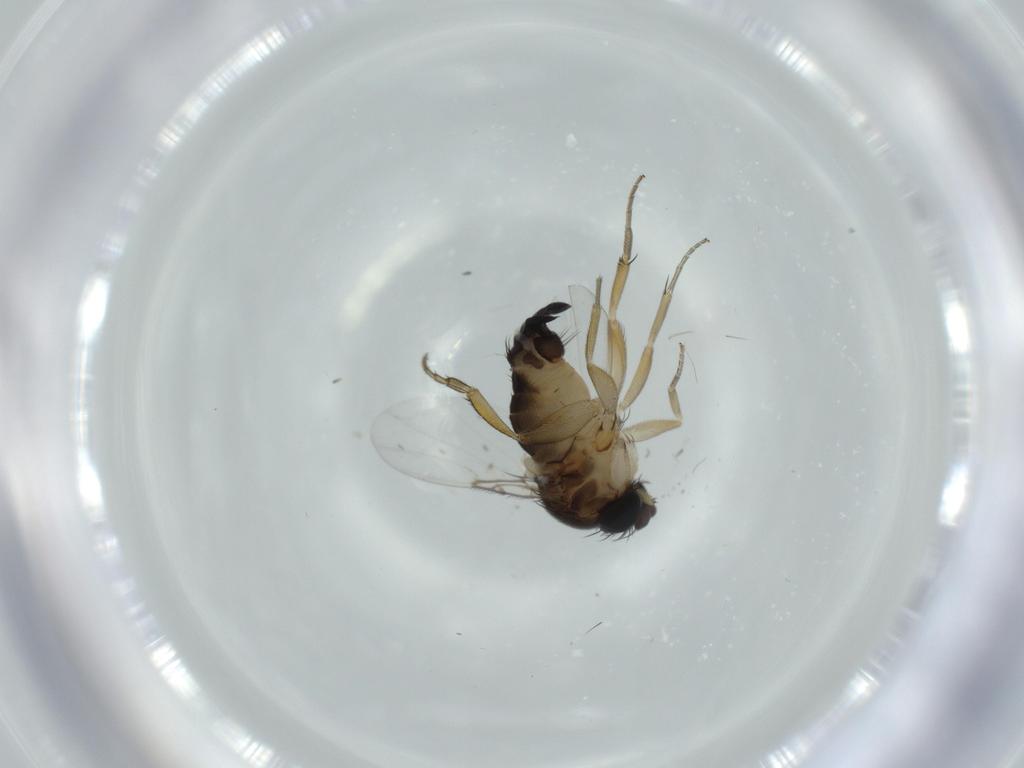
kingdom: Animalia
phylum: Arthropoda
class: Insecta
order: Diptera
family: Phoridae
